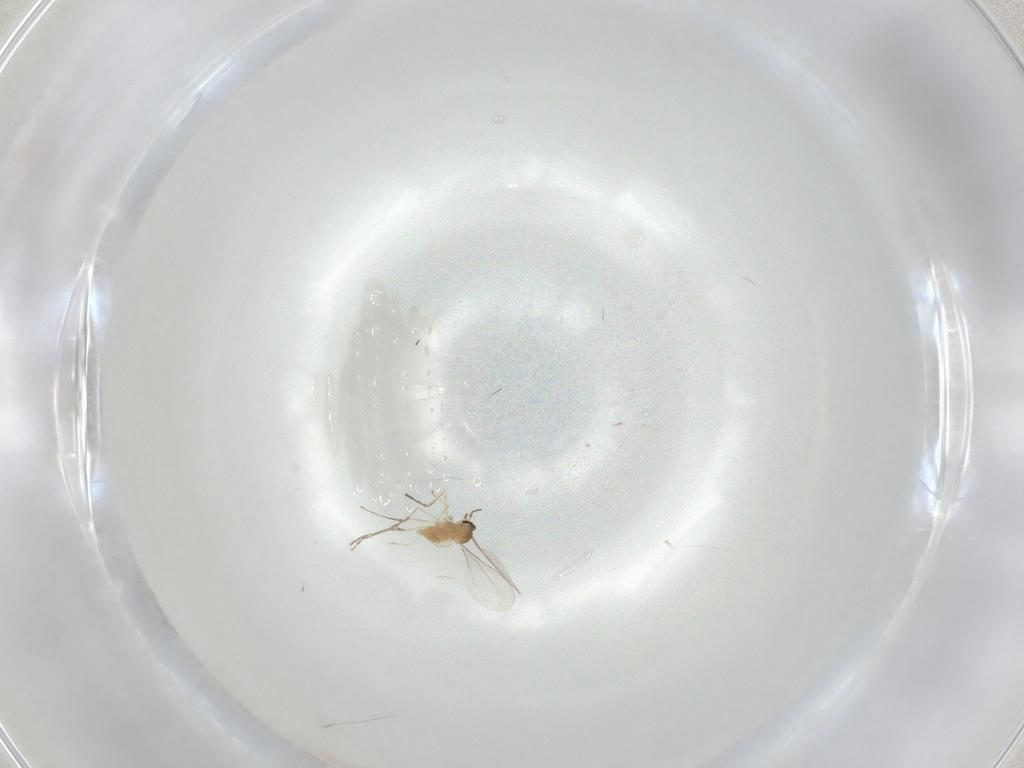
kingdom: Animalia
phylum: Arthropoda
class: Insecta
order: Diptera
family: Cecidomyiidae
